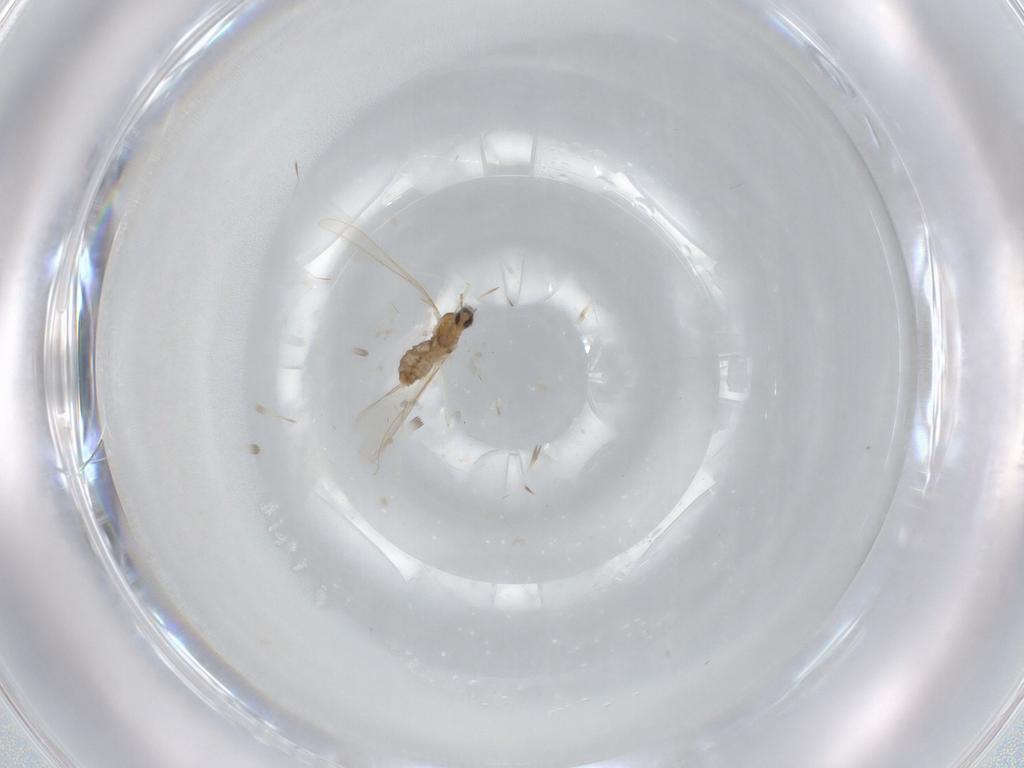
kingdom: Animalia
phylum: Arthropoda
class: Insecta
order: Diptera
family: Cecidomyiidae
